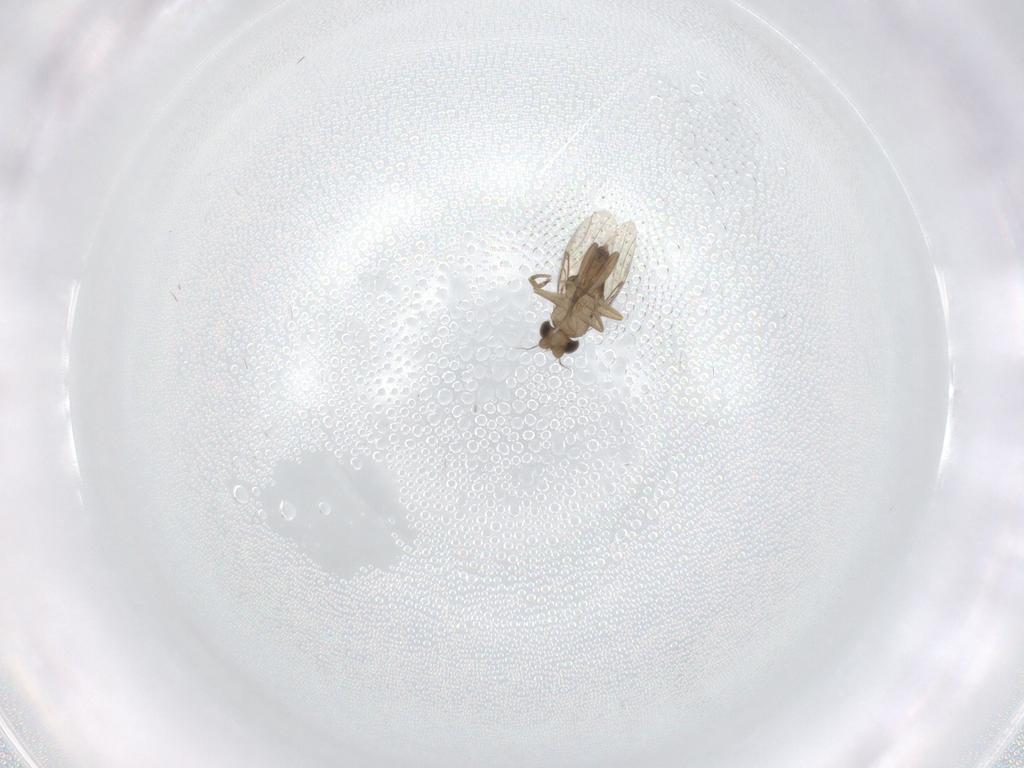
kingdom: Animalia
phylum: Arthropoda
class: Insecta
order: Diptera
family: Phoridae
